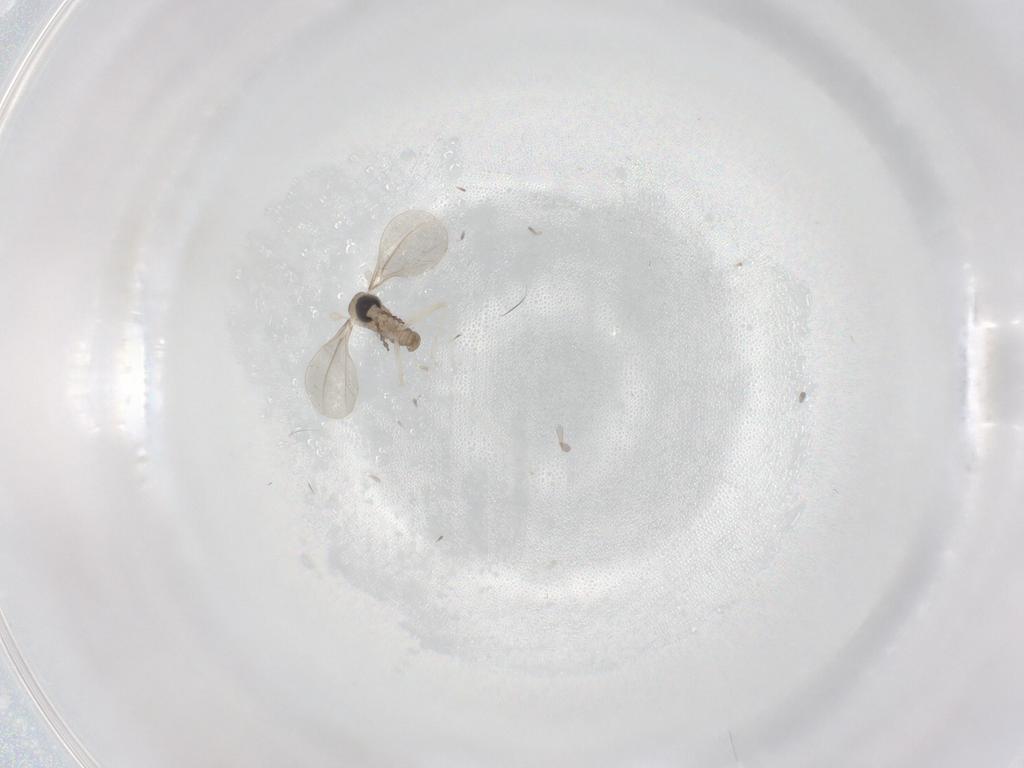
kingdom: Animalia
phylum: Arthropoda
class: Insecta
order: Diptera
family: Cecidomyiidae
